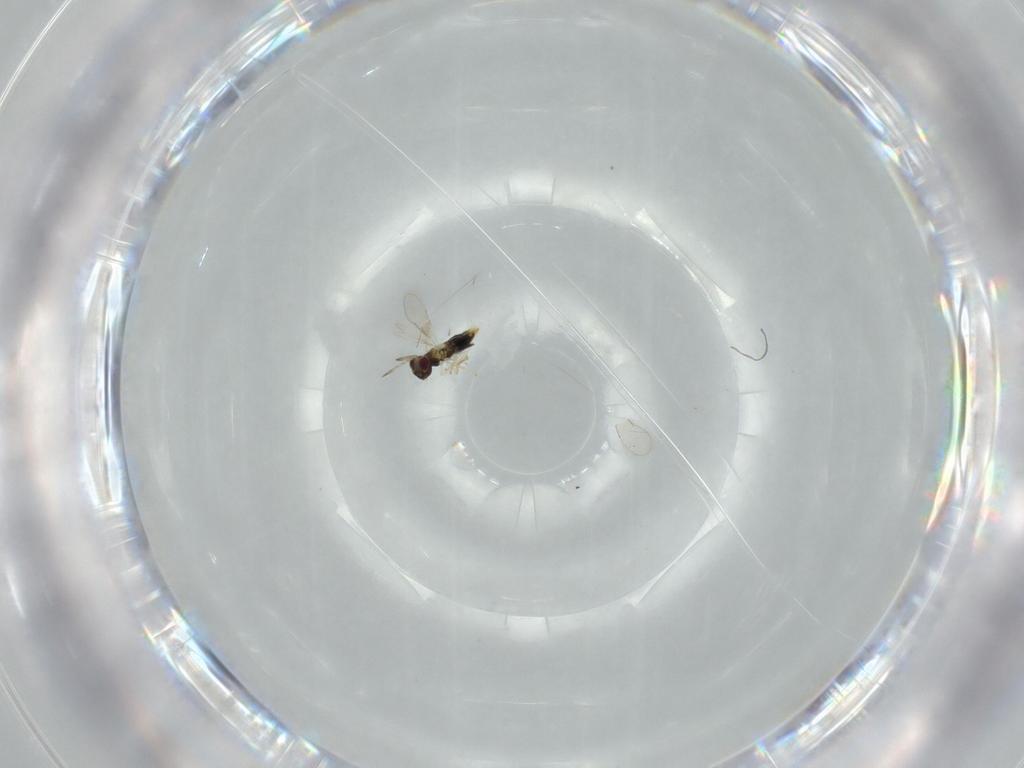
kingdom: Animalia
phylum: Arthropoda
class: Insecta
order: Hymenoptera
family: Aphelinidae
